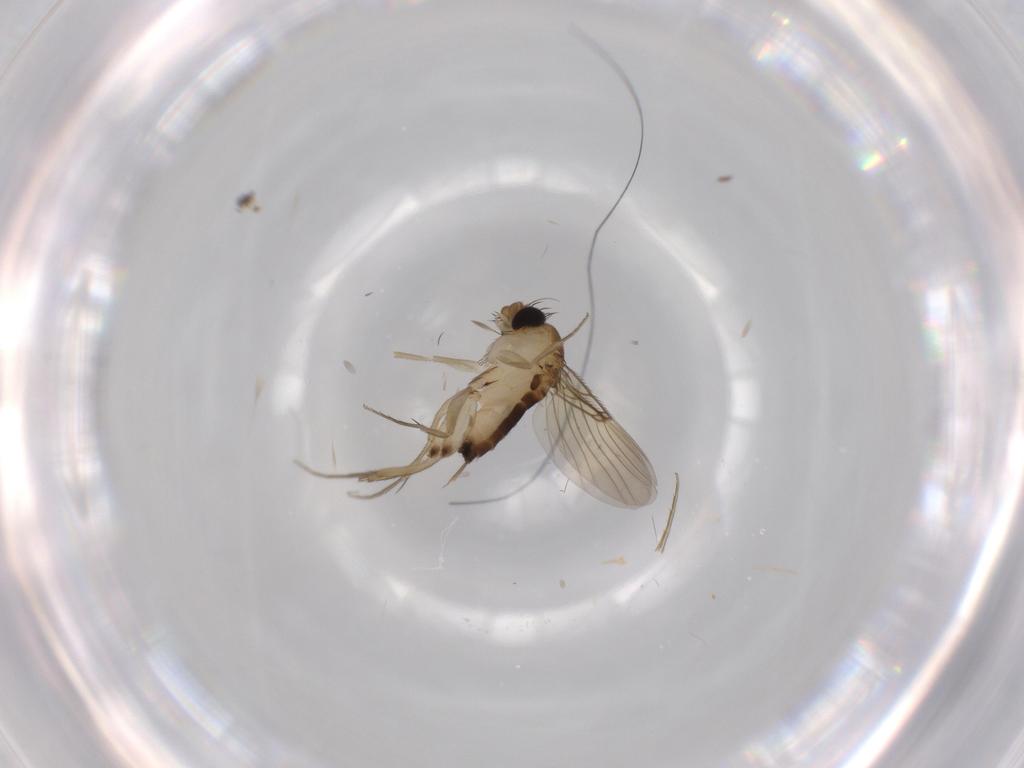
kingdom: Animalia
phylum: Arthropoda
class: Insecta
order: Diptera
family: Phoridae
